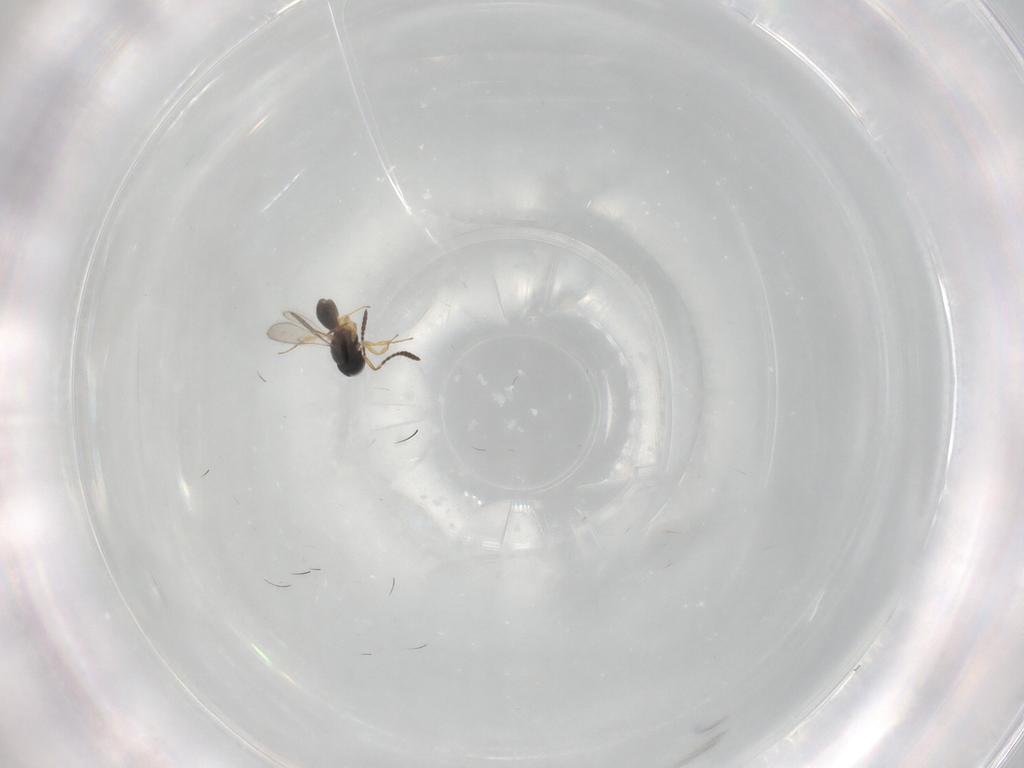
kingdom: Animalia
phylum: Arthropoda
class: Insecta
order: Hymenoptera
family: Scelionidae
